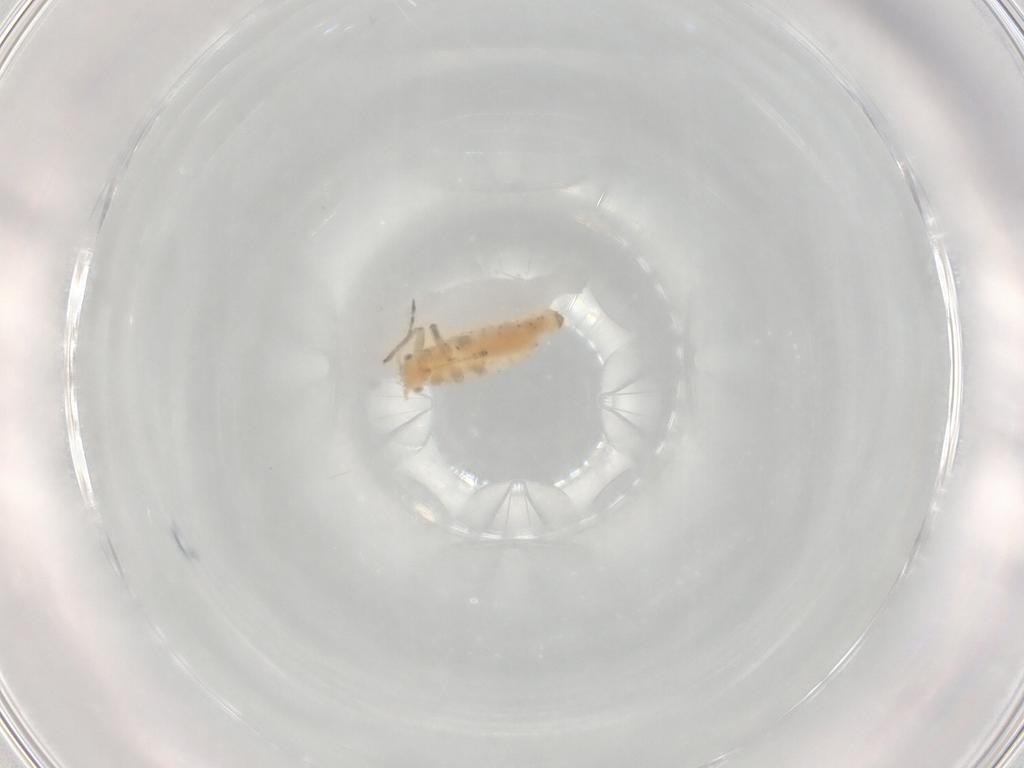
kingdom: Animalia
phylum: Arthropoda
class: Insecta
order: Hemiptera
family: Aphididae
